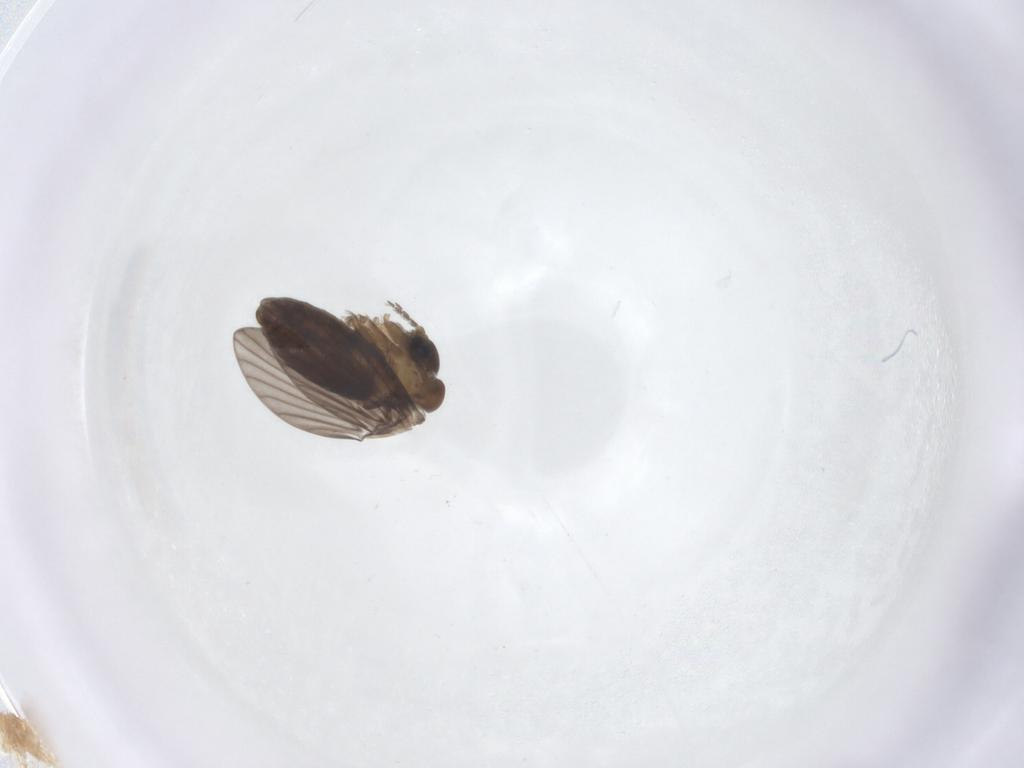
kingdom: Animalia
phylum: Arthropoda
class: Insecta
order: Diptera
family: Psychodidae
